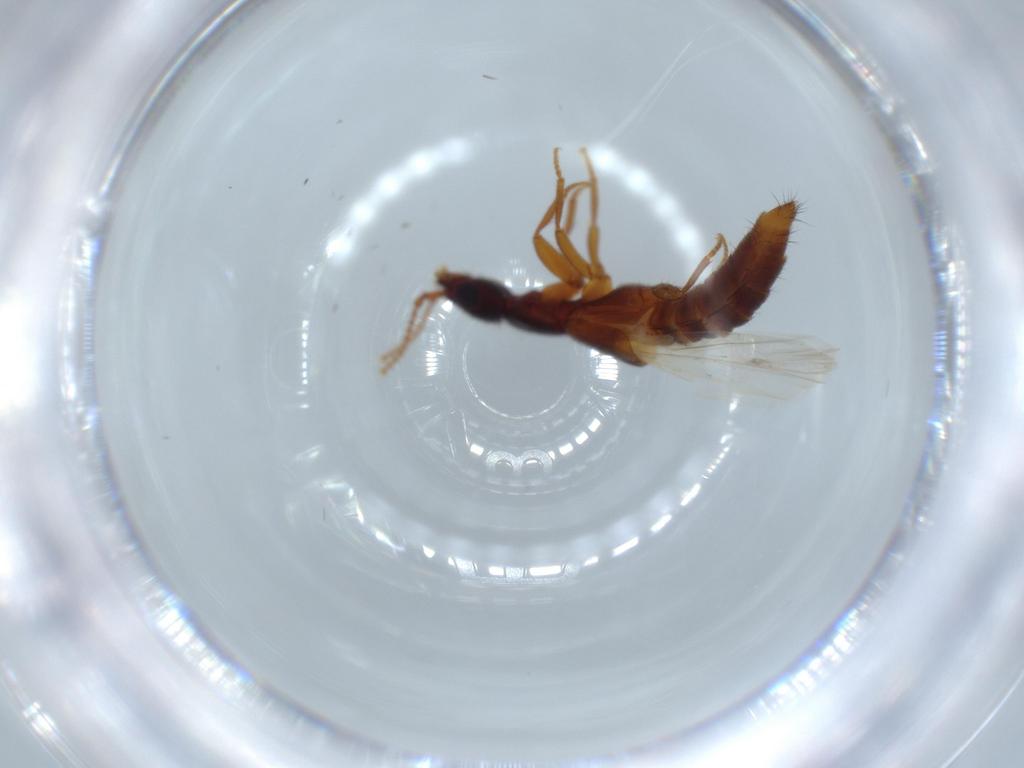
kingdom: Animalia
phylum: Arthropoda
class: Insecta
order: Coleoptera
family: Staphylinidae
